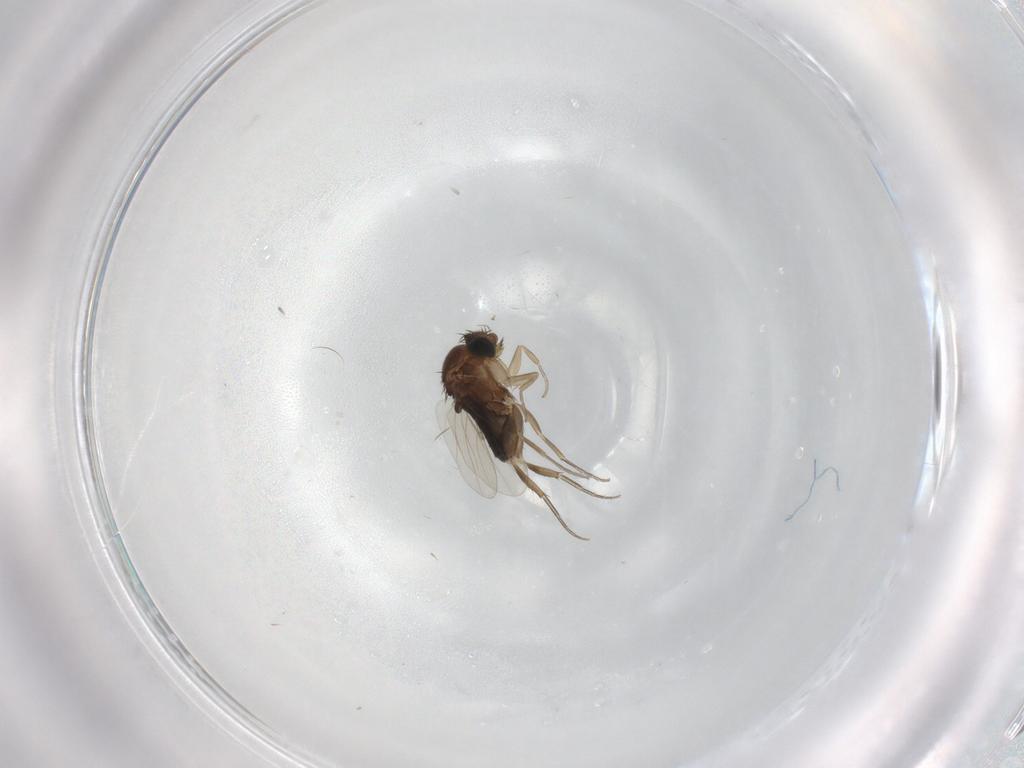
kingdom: Animalia
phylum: Arthropoda
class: Insecta
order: Diptera
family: Phoridae
